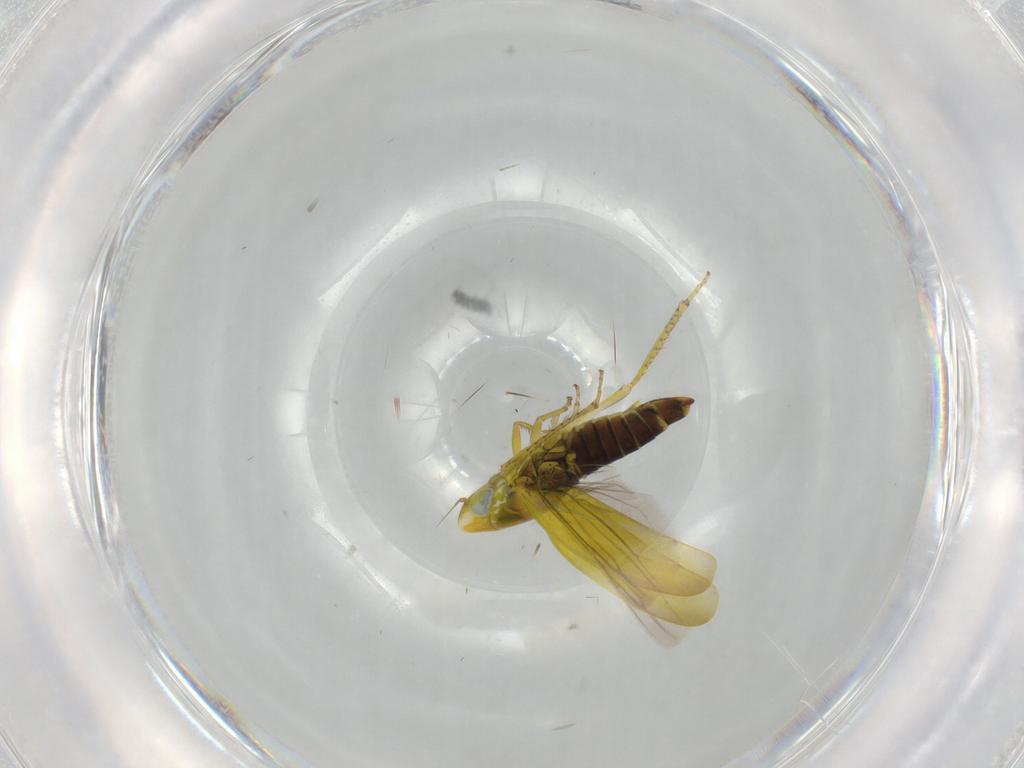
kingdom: Animalia
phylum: Arthropoda
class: Insecta
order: Hemiptera
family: Cicadellidae
